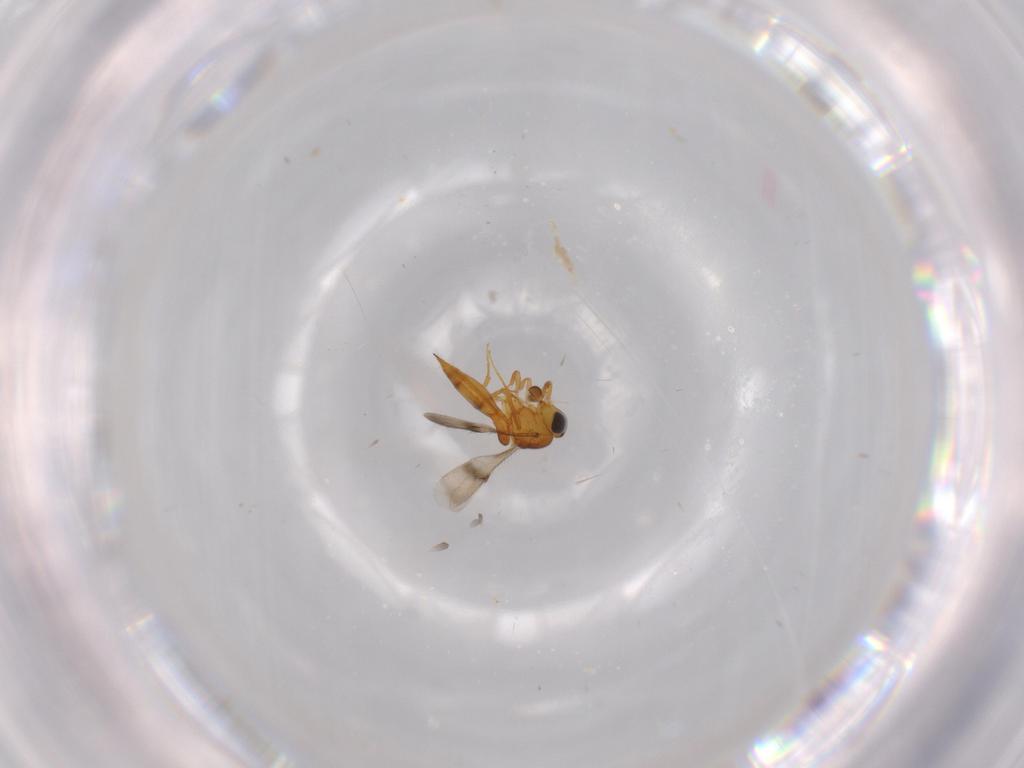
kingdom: Animalia
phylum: Arthropoda
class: Insecta
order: Hymenoptera
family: Scelionidae
